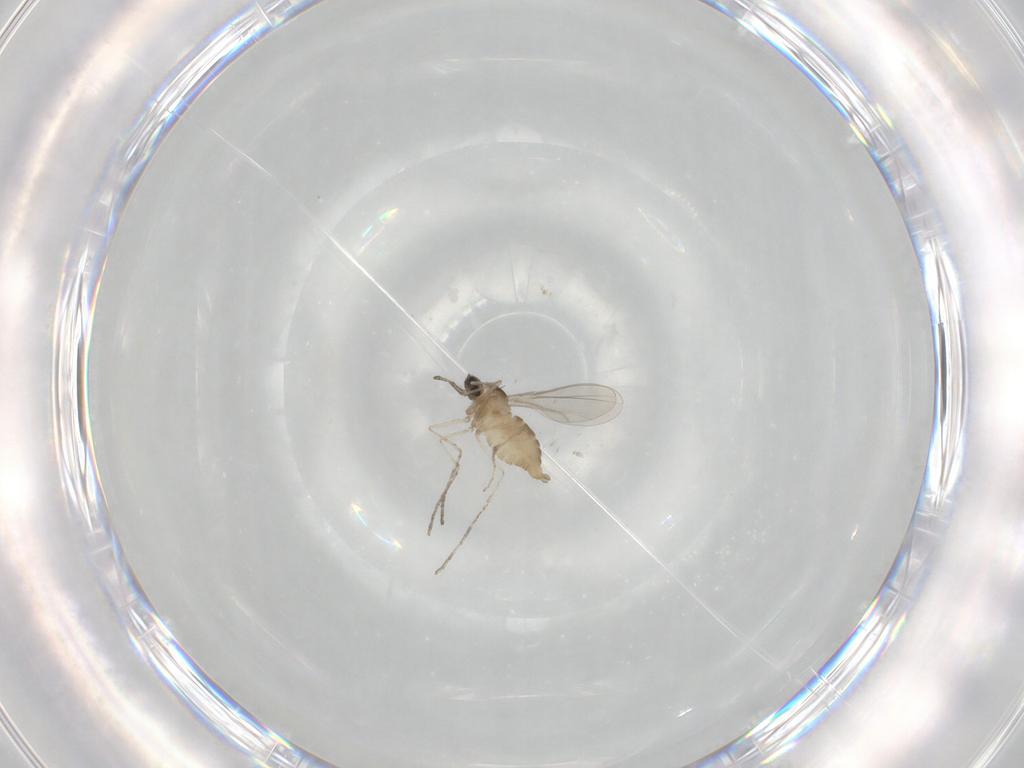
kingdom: Animalia
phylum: Arthropoda
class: Insecta
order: Diptera
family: Cecidomyiidae
